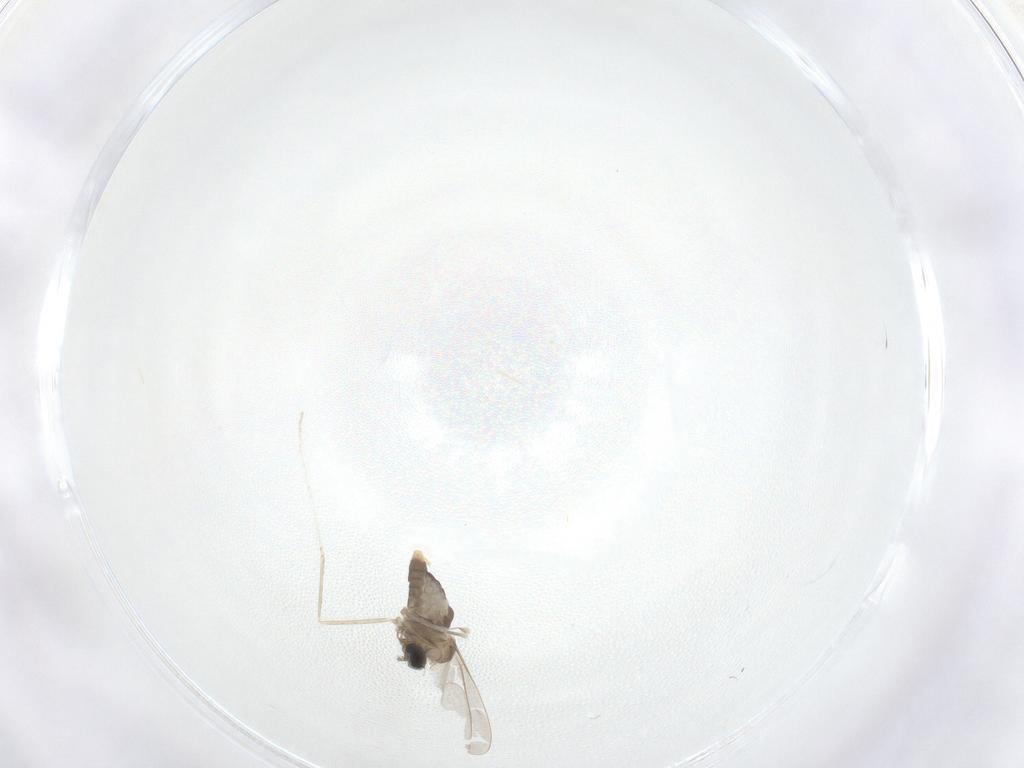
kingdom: Animalia
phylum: Arthropoda
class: Insecta
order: Diptera
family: Cecidomyiidae
